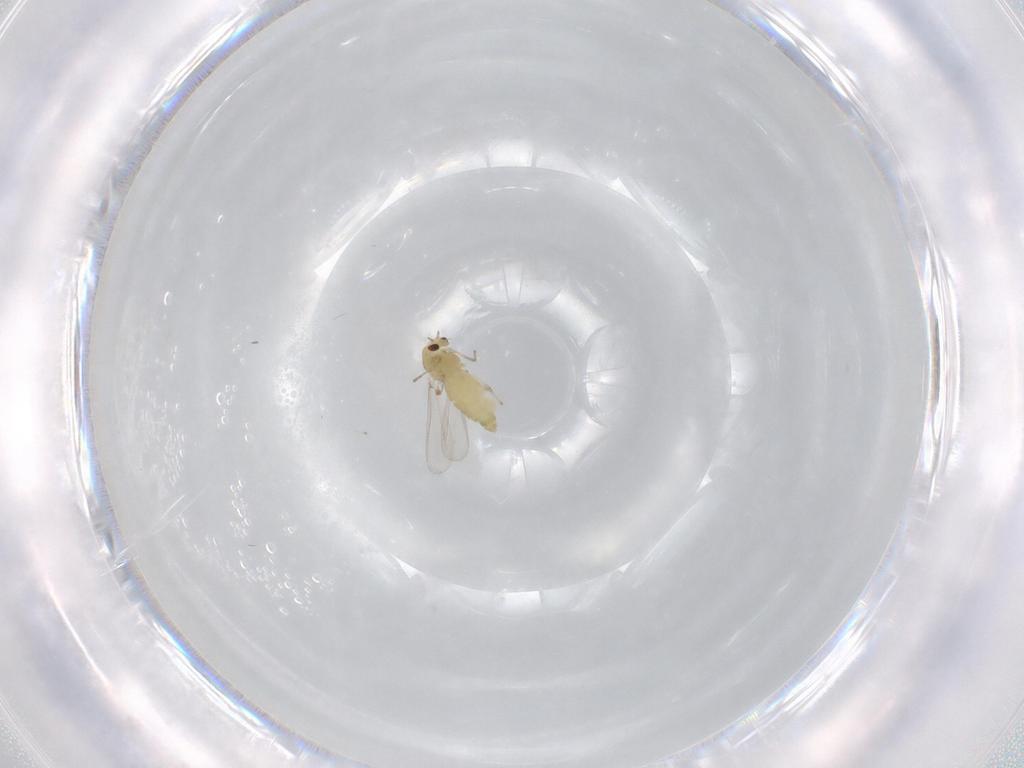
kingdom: Animalia
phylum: Arthropoda
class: Insecta
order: Diptera
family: Chironomidae
